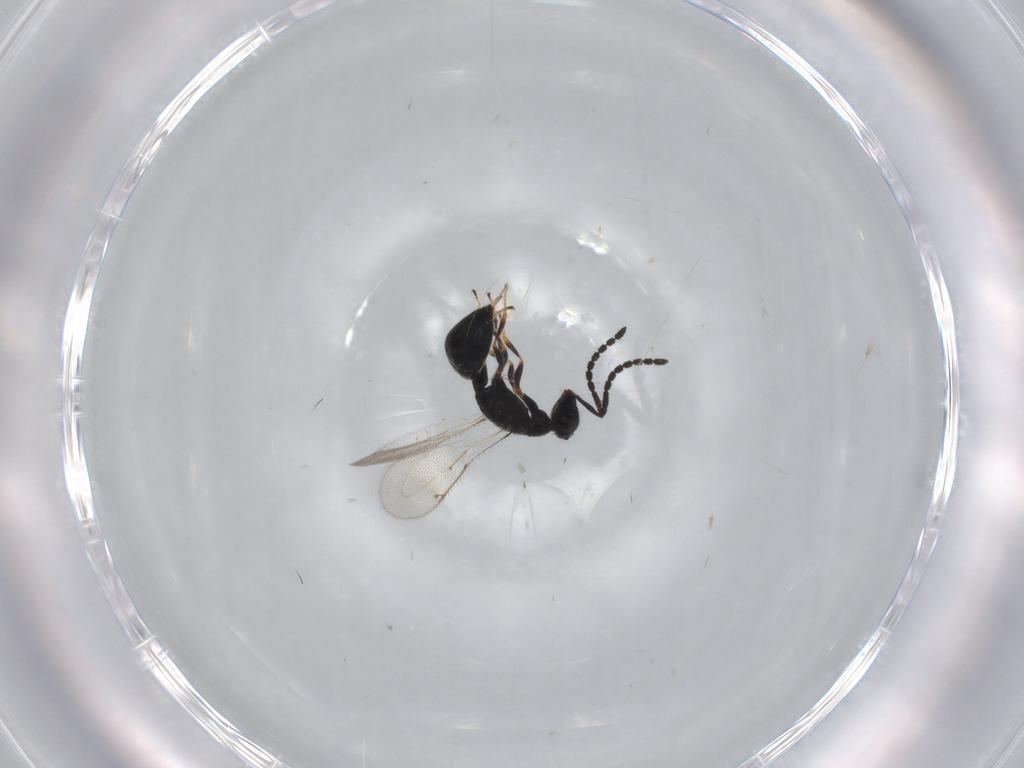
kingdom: Animalia
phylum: Arthropoda
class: Insecta
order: Hymenoptera
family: Spalangiidae
